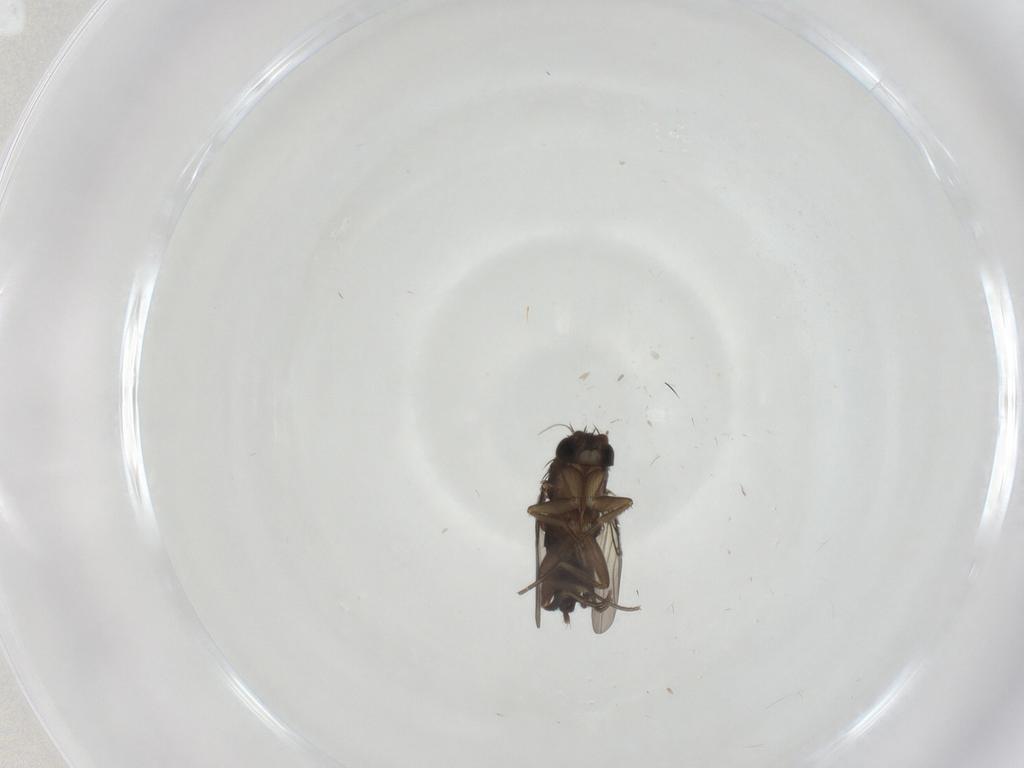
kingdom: Animalia
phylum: Arthropoda
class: Insecta
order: Diptera
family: Phoridae
